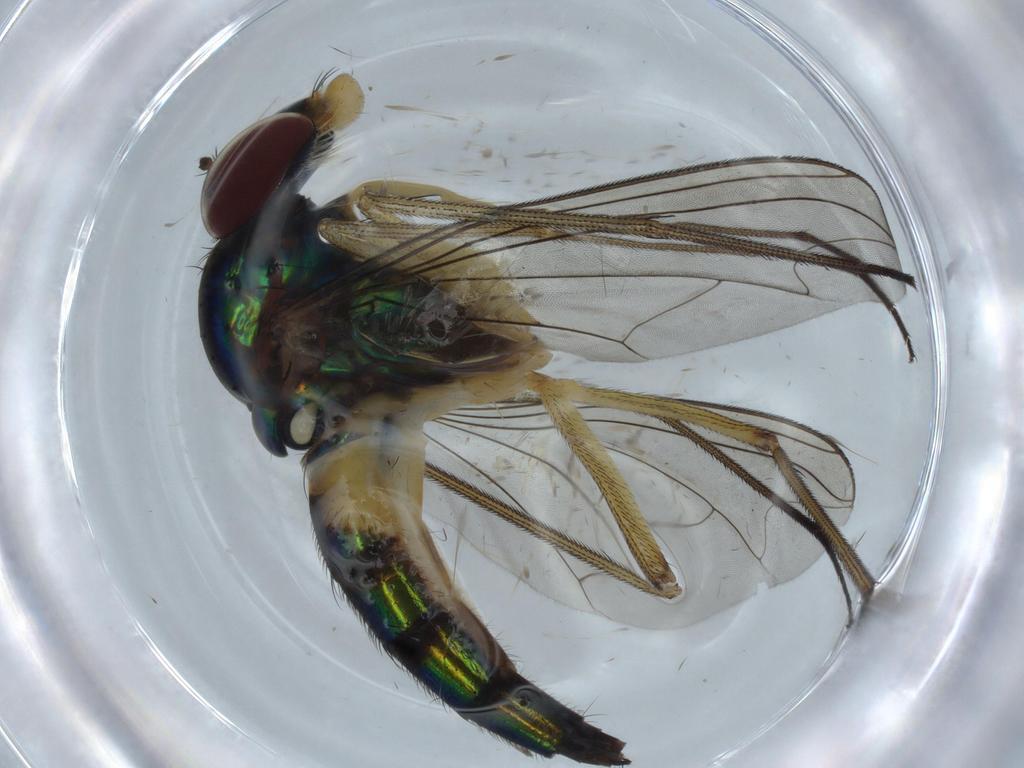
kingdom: Animalia
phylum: Arthropoda
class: Insecta
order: Diptera
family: Dolichopodidae
